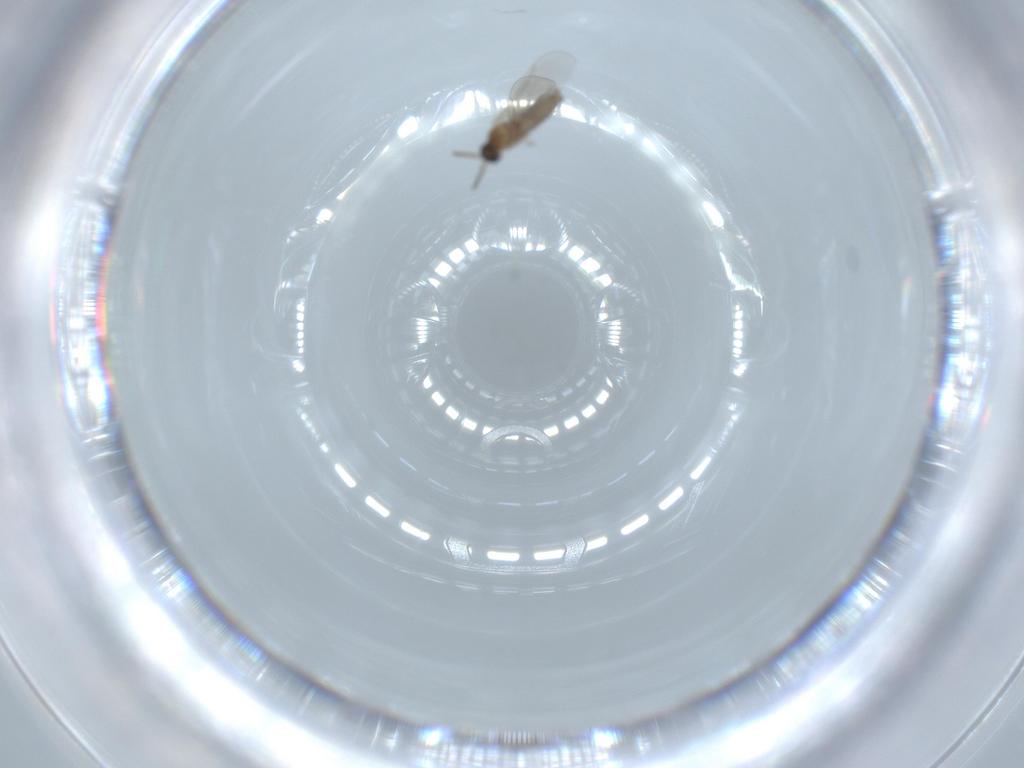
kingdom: Animalia
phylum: Arthropoda
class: Insecta
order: Diptera
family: Cecidomyiidae
